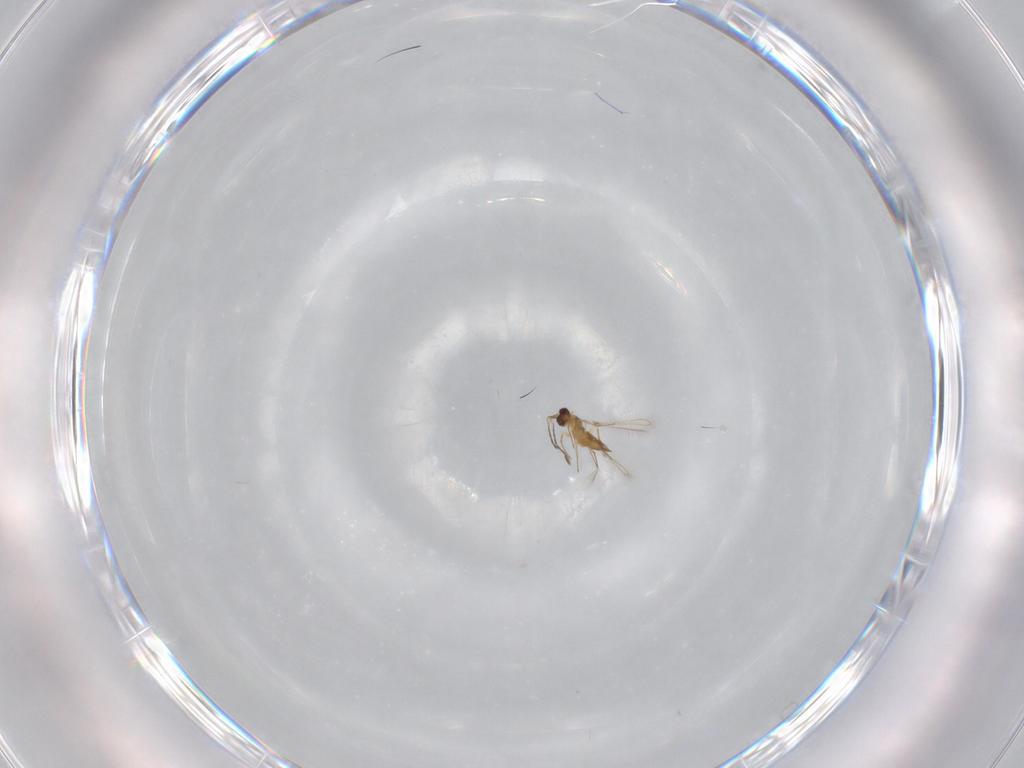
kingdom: Animalia
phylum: Arthropoda
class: Insecta
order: Hymenoptera
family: Mymaridae
